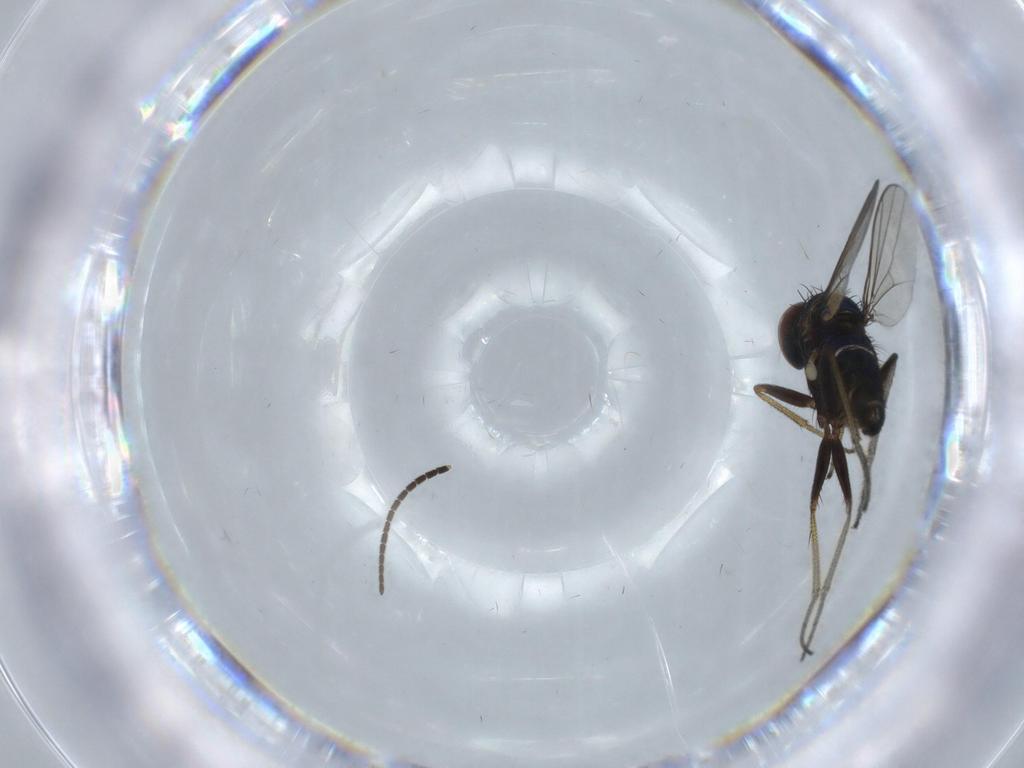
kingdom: Animalia
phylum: Arthropoda
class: Insecta
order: Diptera
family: Sciaridae
